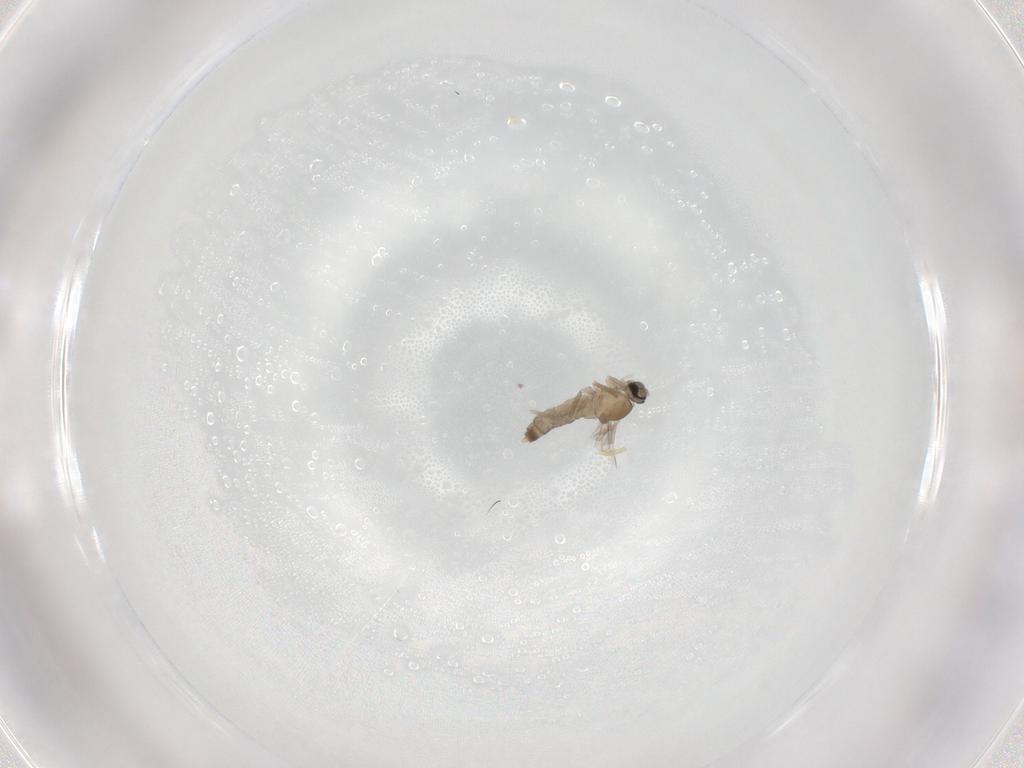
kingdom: Animalia
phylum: Arthropoda
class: Insecta
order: Diptera
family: Cecidomyiidae
